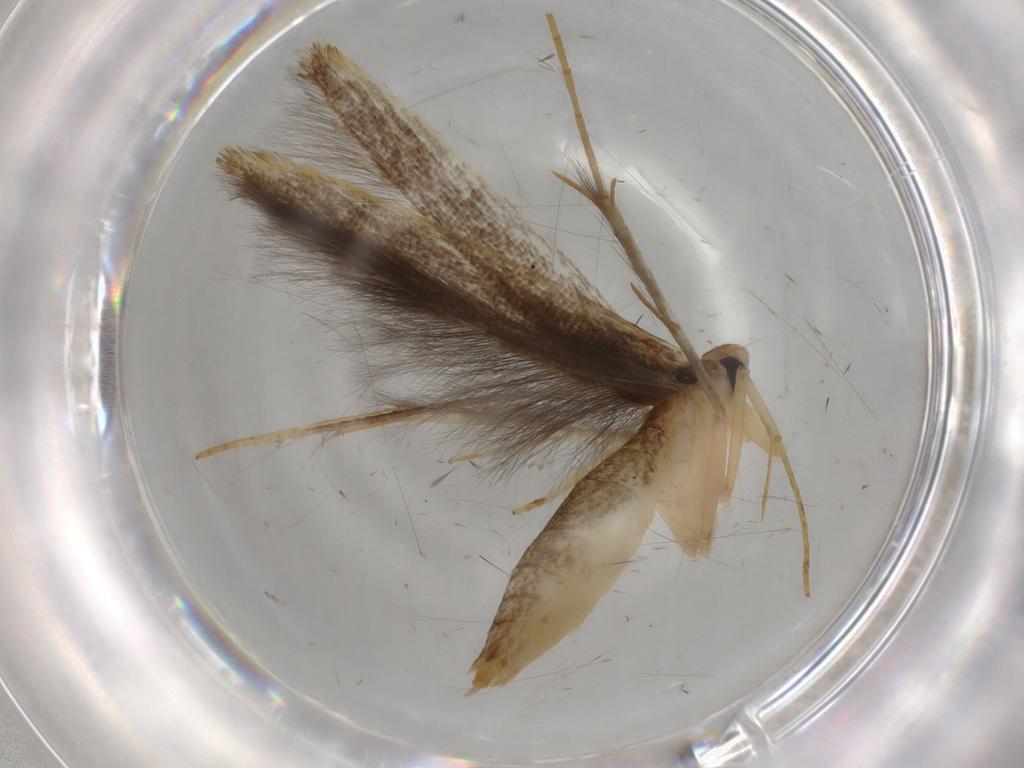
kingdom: Animalia
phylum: Arthropoda
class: Insecta
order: Lepidoptera
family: Pterolonchidae
